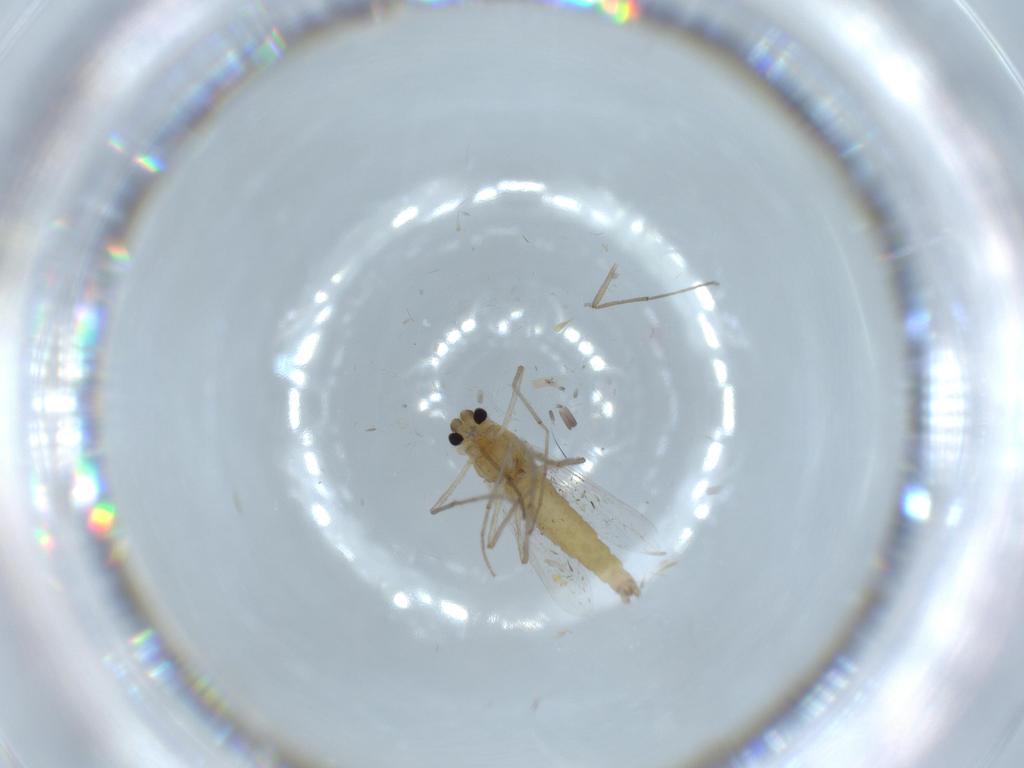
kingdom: Animalia
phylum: Arthropoda
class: Insecta
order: Diptera
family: Chironomidae
